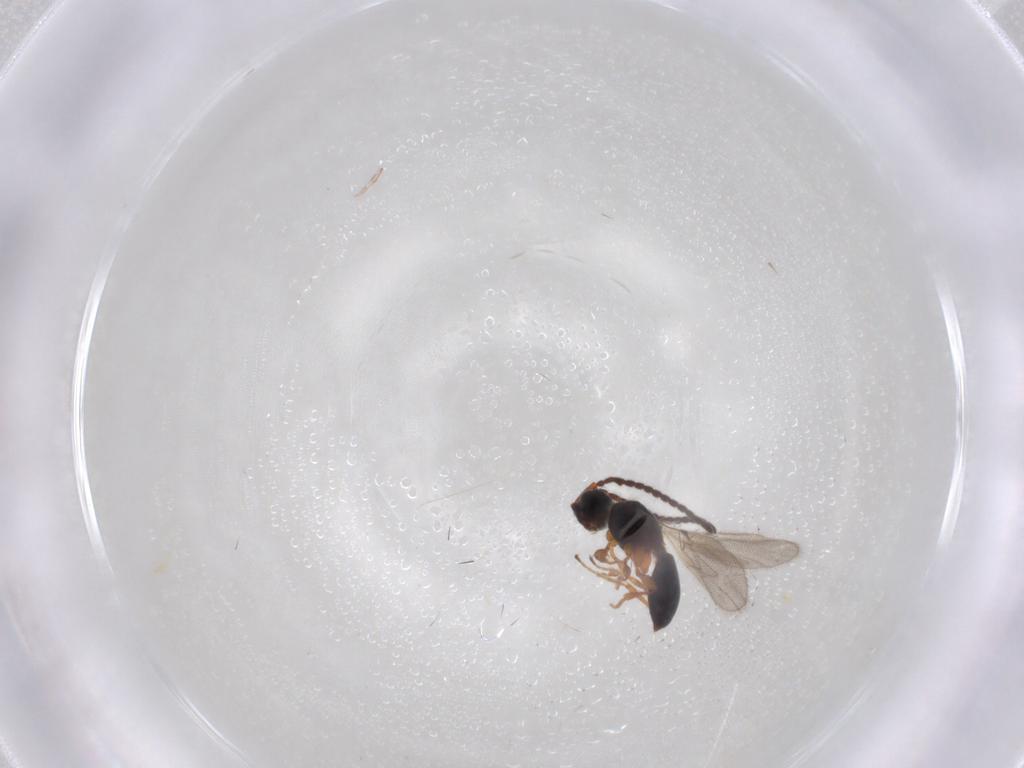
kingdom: Animalia
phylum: Arthropoda
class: Insecta
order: Hymenoptera
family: Diapriidae
